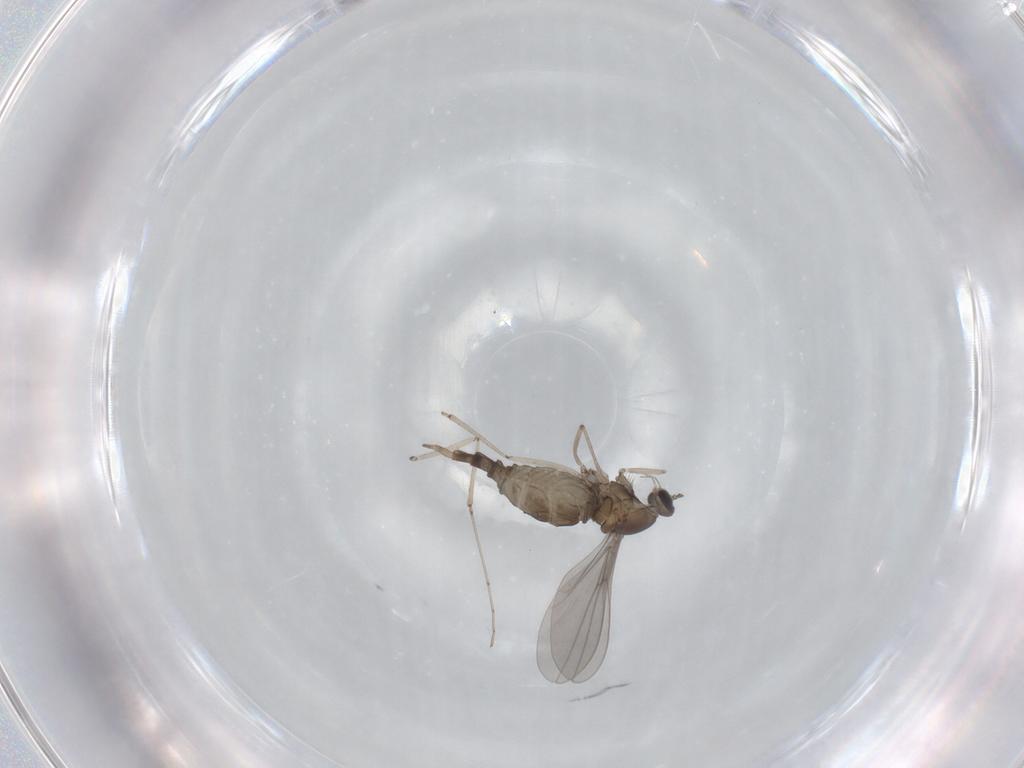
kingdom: Animalia
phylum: Arthropoda
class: Insecta
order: Diptera
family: Cecidomyiidae
